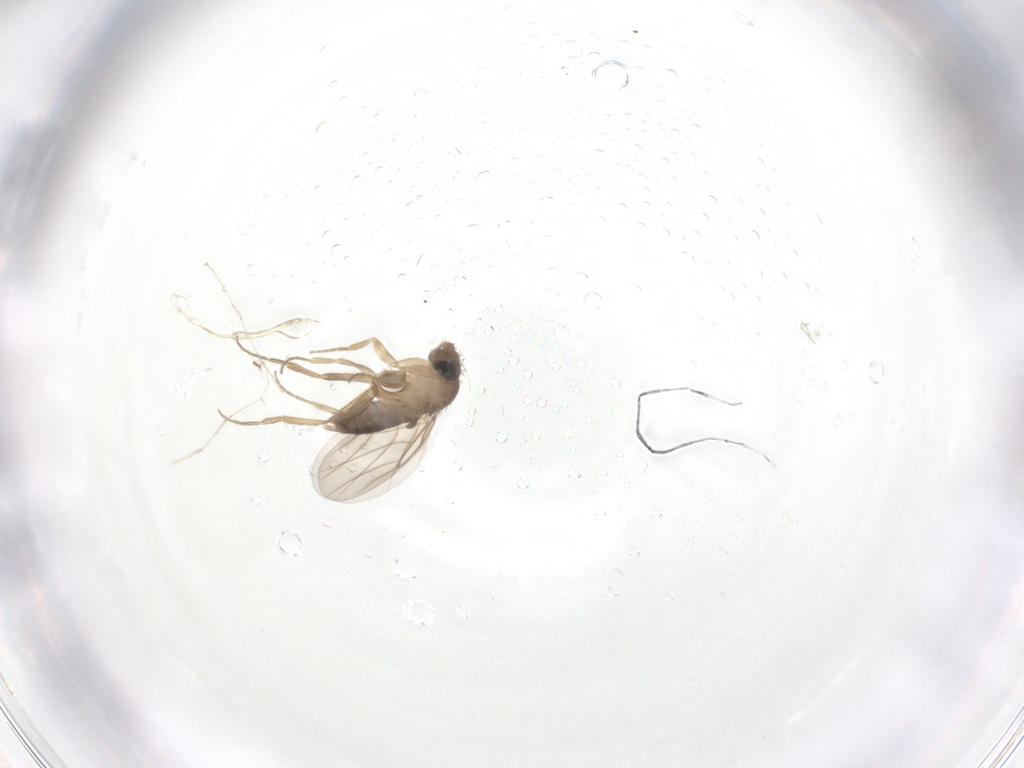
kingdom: Animalia
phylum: Arthropoda
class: Insecta
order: Diptera
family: Phoridae
